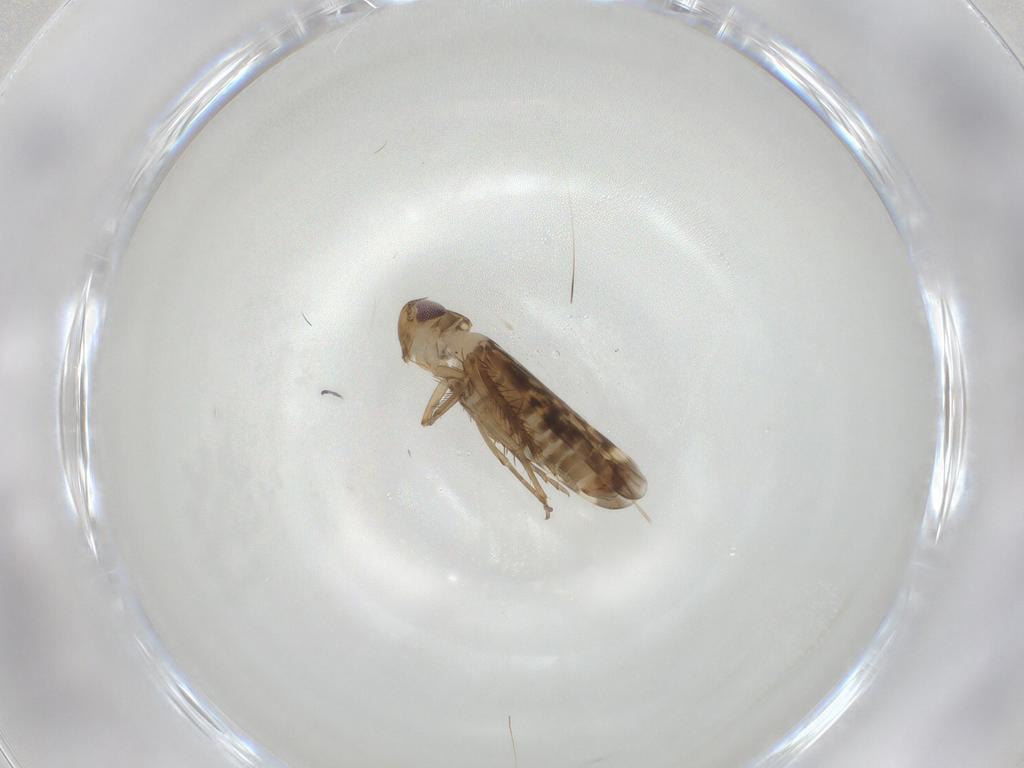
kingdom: Animalia
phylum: Arthropoda
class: Insecta
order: Hemiptera
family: Cicadellidae
